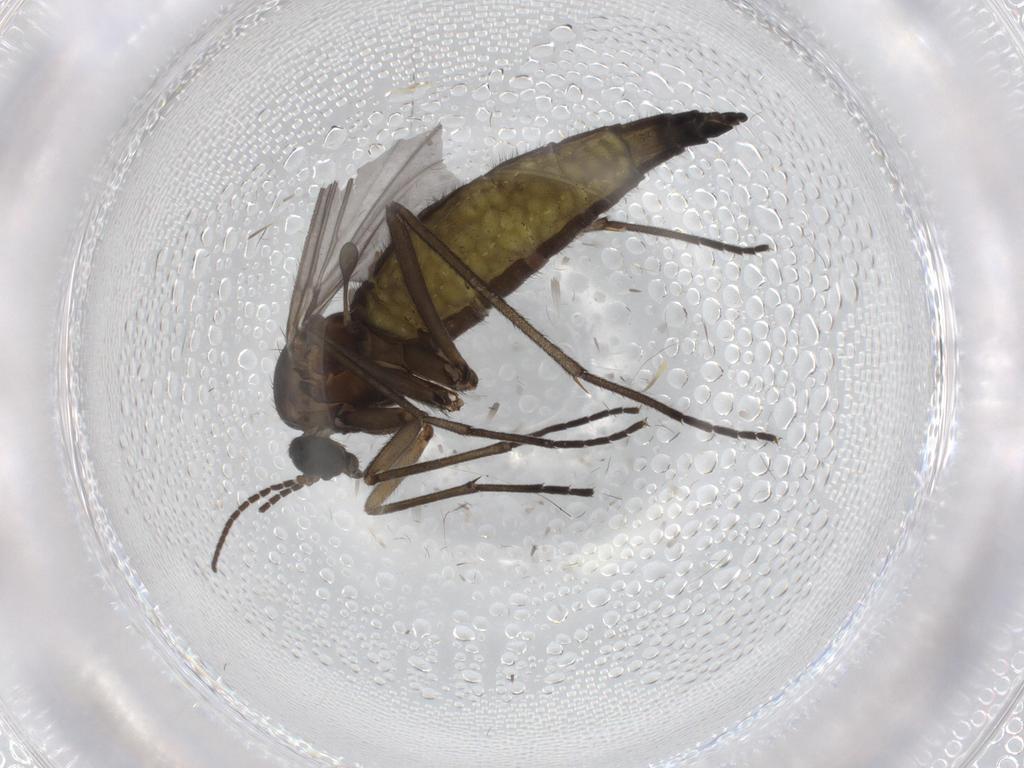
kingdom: Animalia
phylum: Arthropoda
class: Insecta
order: Diptera
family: Sciaridae
